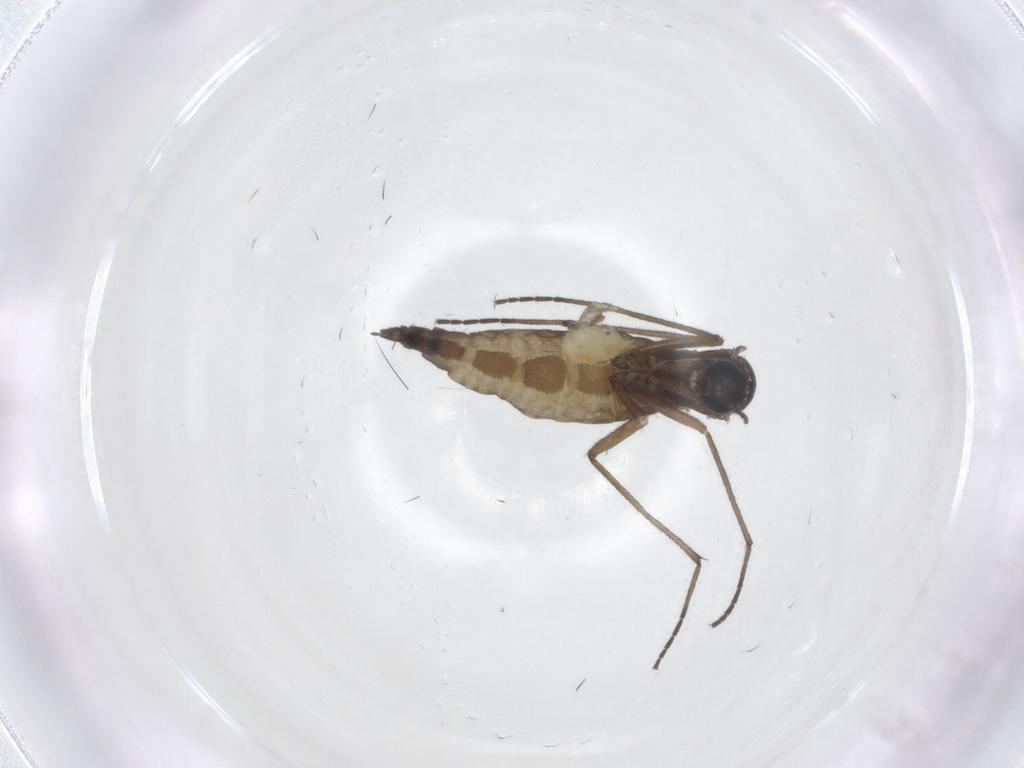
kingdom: Animalia
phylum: Arthropoda
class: Insecta
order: Diptera
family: Sciaridae
